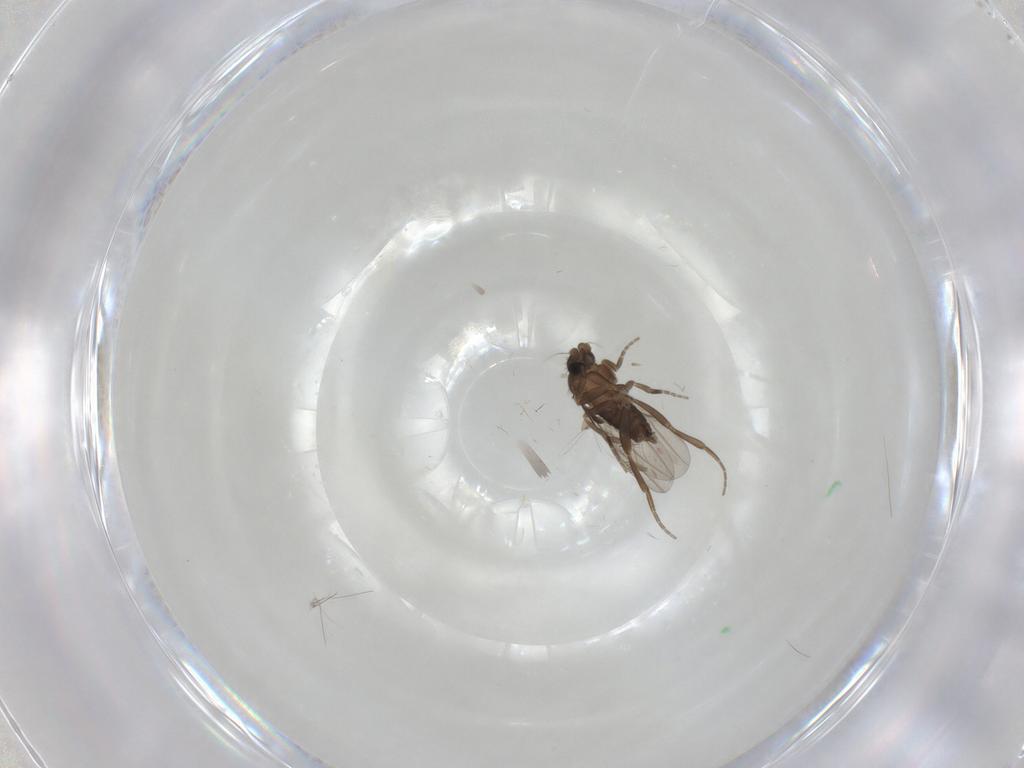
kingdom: Animalia
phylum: Arthropoda
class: Insecta
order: Diptera
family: Phoridae
